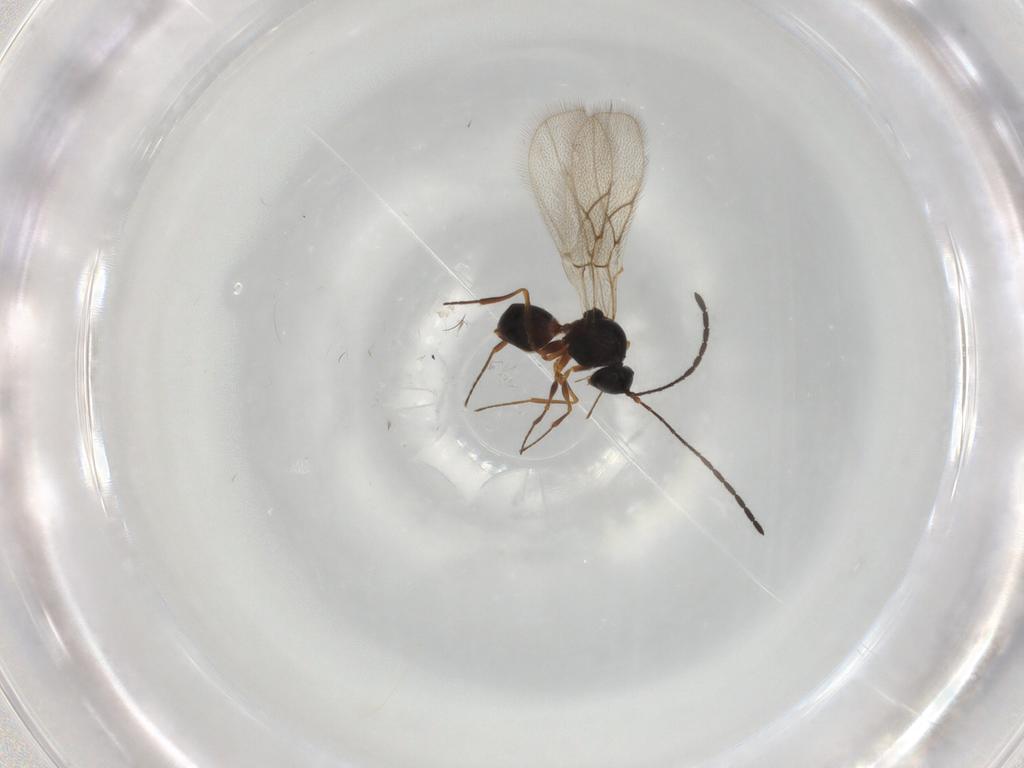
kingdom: Animalia
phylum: Arthropoda
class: Insecta
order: Hymenoptera
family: Figitidae
